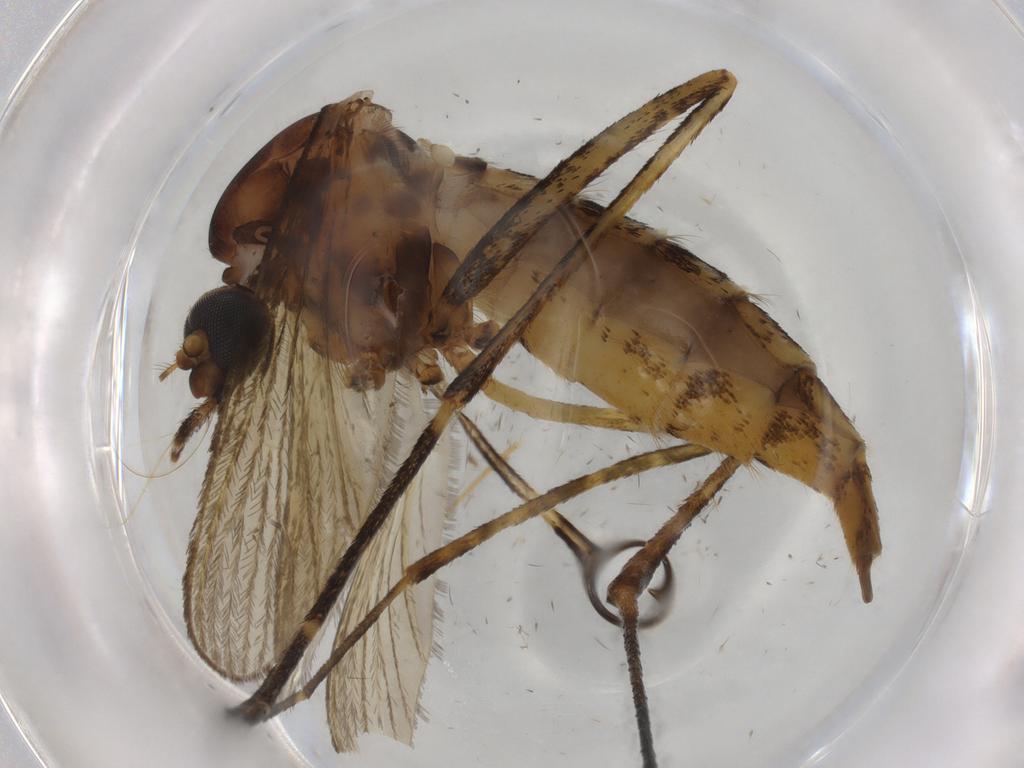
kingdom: Animalia
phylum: Arthropoda
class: Insecta
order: Diptera
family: Culicidae
